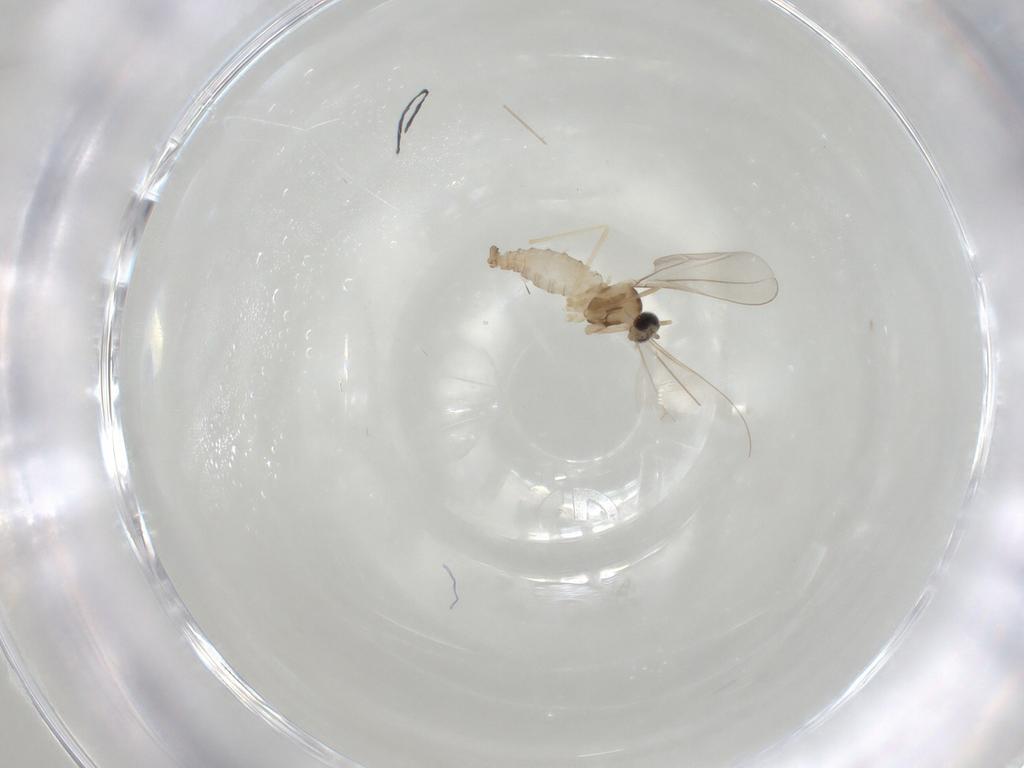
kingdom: Animalia
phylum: Arthropoda
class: Insecta
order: Diptera
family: Cecidomyiidae
